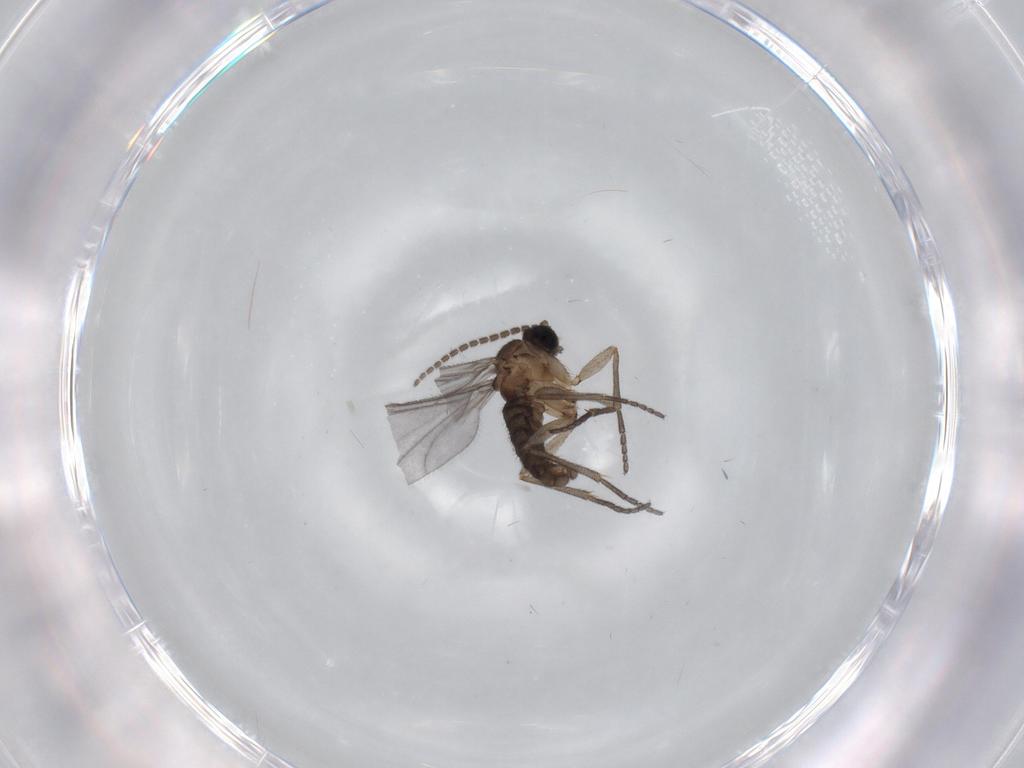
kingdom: Animalia
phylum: Arthropoda
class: Insecta
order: Diptera
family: Sciaridae
